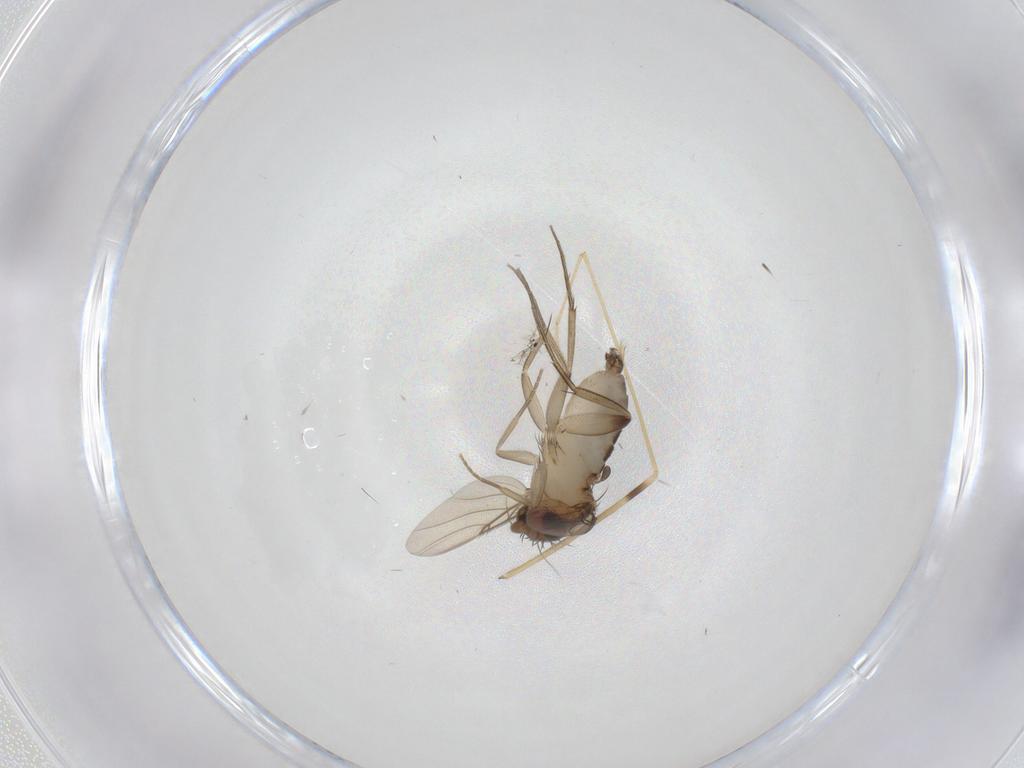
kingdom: Animalia
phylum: Arthropoda
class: Insecta
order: Diptera
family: Phoridae
